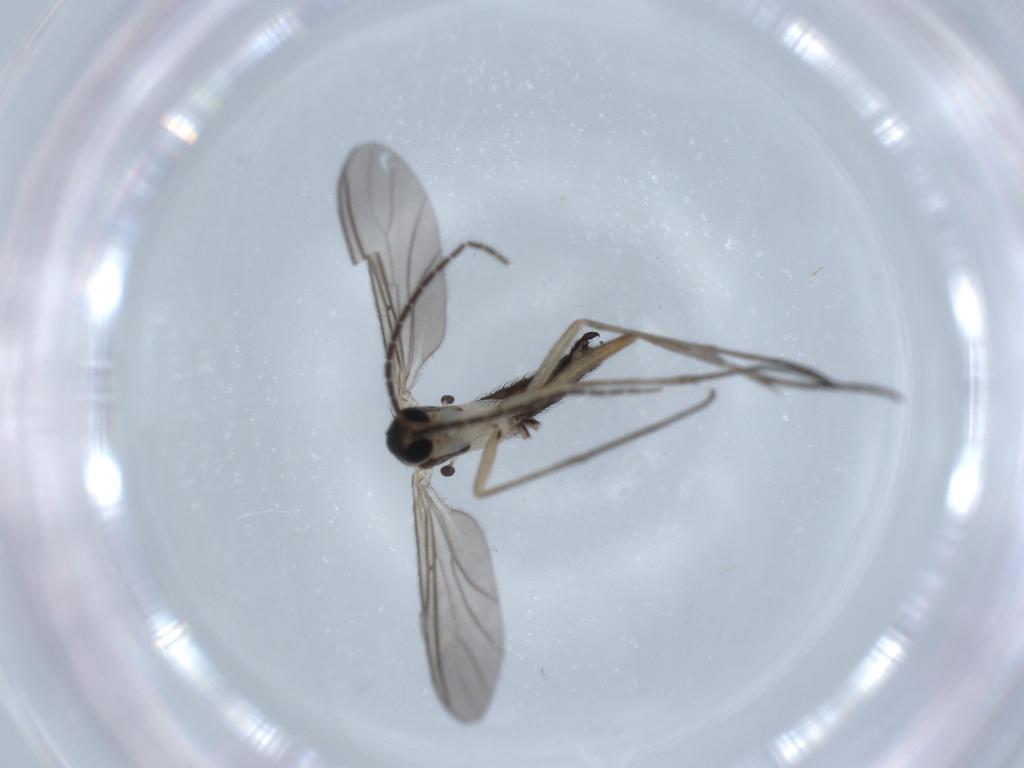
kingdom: Animalia
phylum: Arthropoda
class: Insecta
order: Diptera
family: Sciaridae
